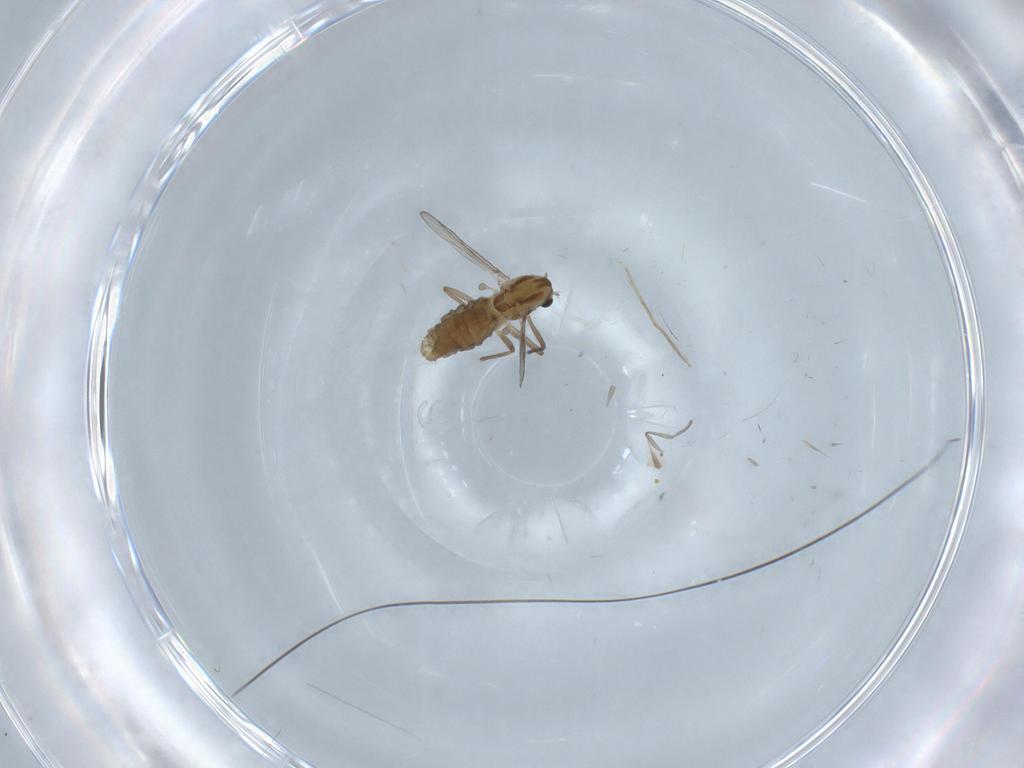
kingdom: Animalia
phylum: Arthropoda
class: Insecta
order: Diptera
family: Chironomidae
